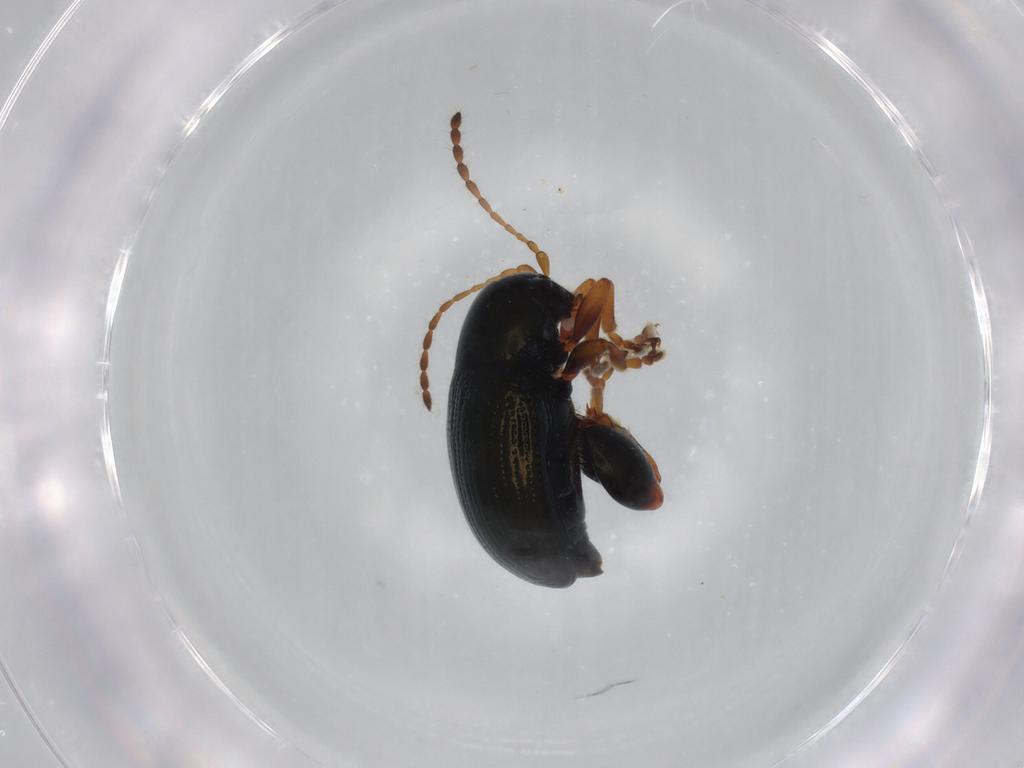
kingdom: Animalia
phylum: Arthropoda
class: Insecta
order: Coleoptera
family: Chrysomelidae
